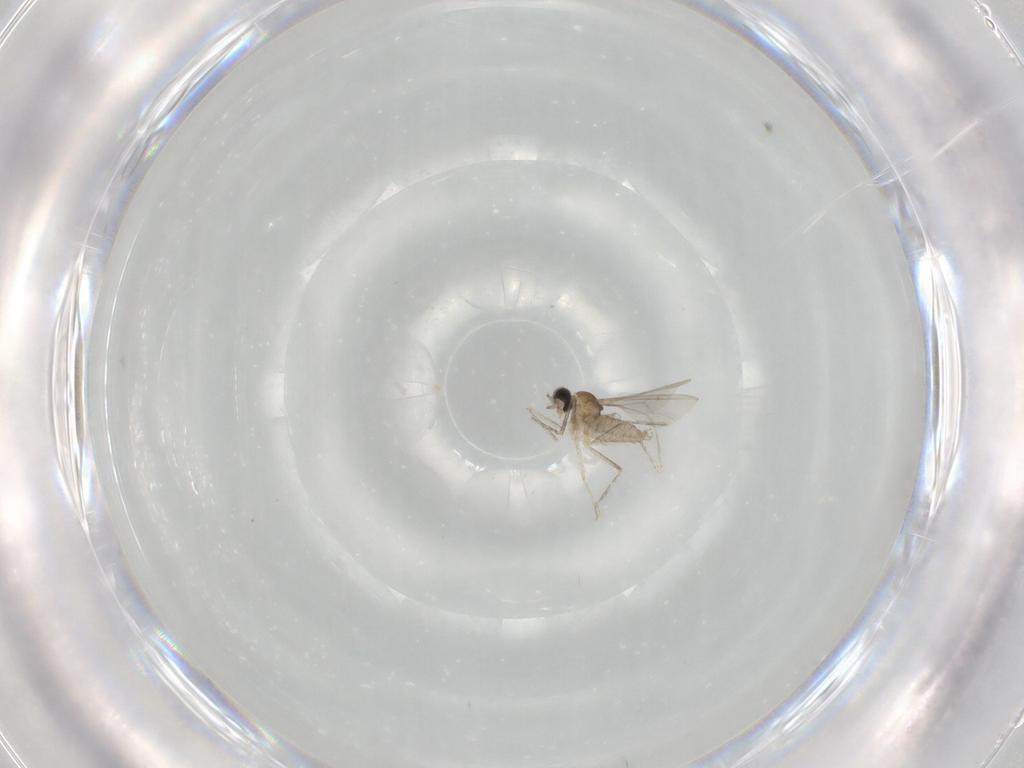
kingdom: Animalia
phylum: Arthropoda
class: Insecta
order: Diptera
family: Cecidomyiidae
